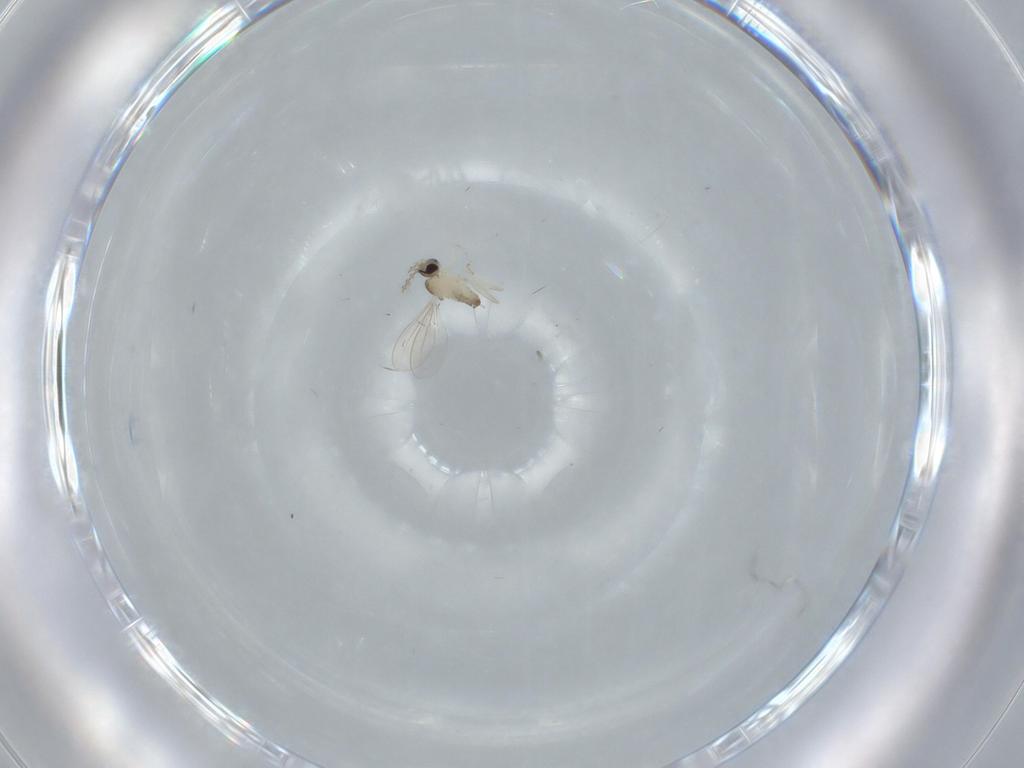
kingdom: Animalia
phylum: Arthropoda
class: Insecta
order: Diptera
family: Cecidomyiidae
